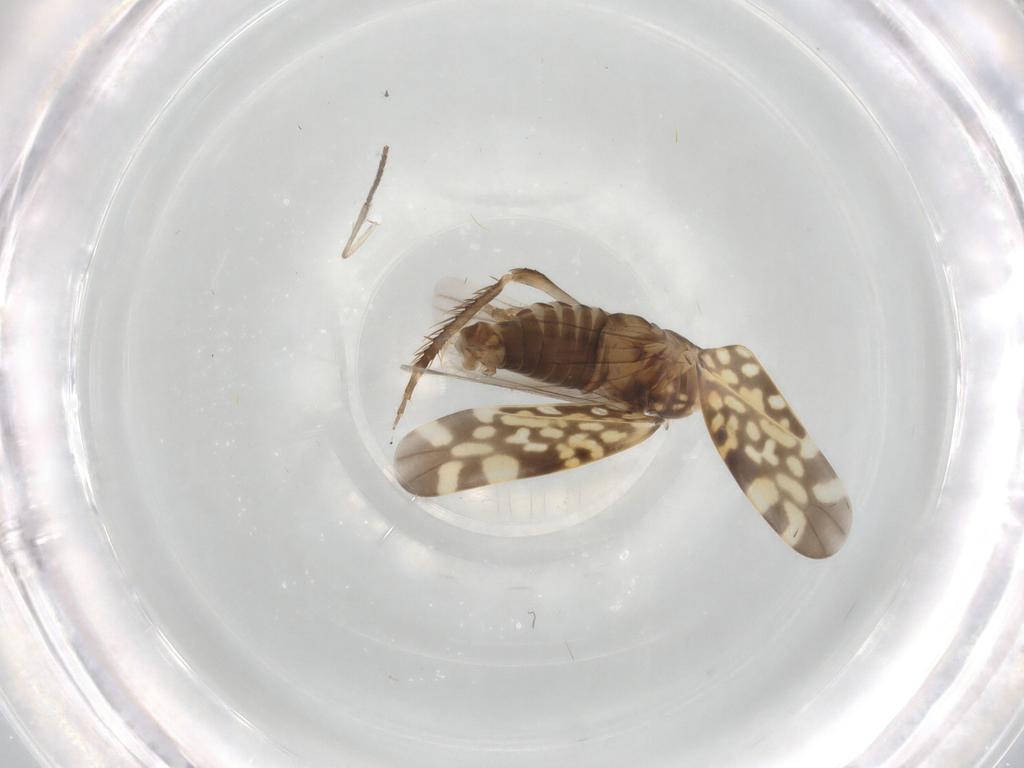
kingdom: Animalia
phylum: Arthropoda
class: Insecta
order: Hemiptera
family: Cicadellidae
